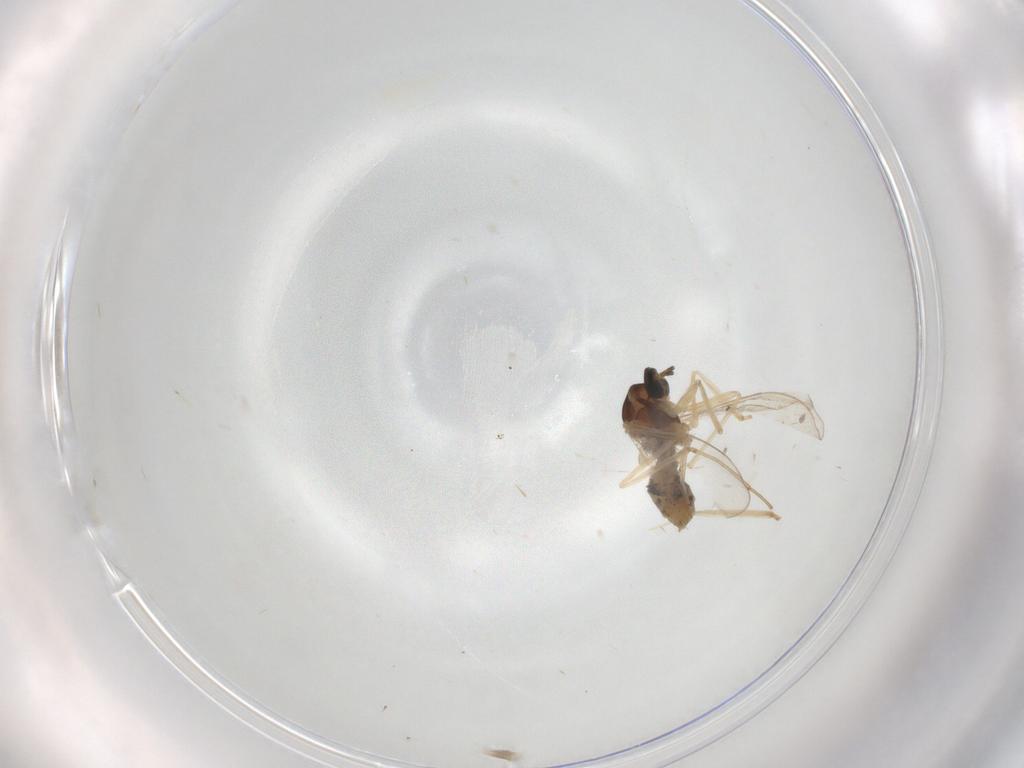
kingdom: Animalia
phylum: Arthropoda
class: Insecta
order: Diptera
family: Cecidomyiidae
